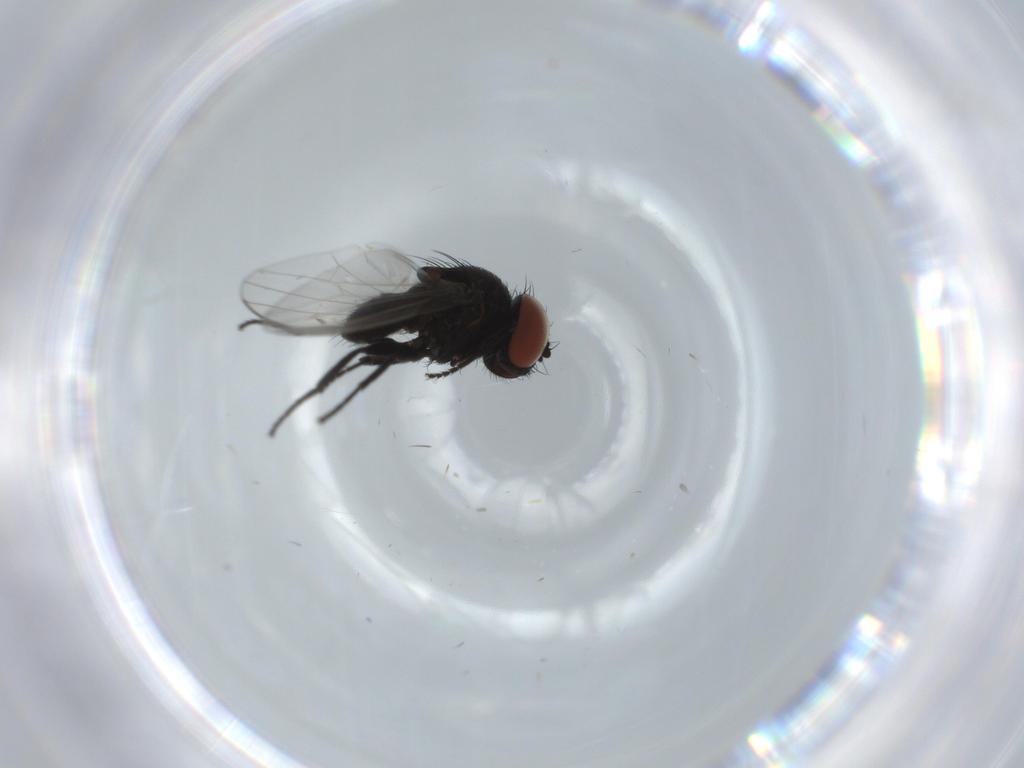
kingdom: Animalia
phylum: Arthropoda
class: Insecta
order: Diptera
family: Milichiidae
